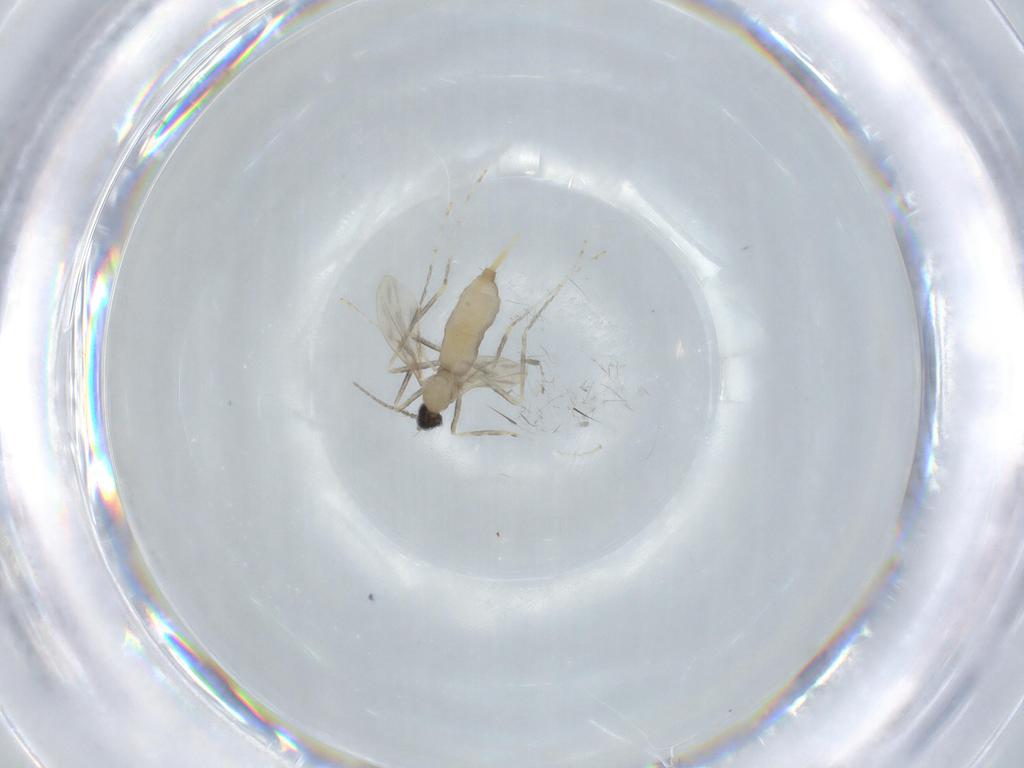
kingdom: Animalia
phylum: Arthropoda
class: Insecta
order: Diptera
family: Cecidomyiidae
